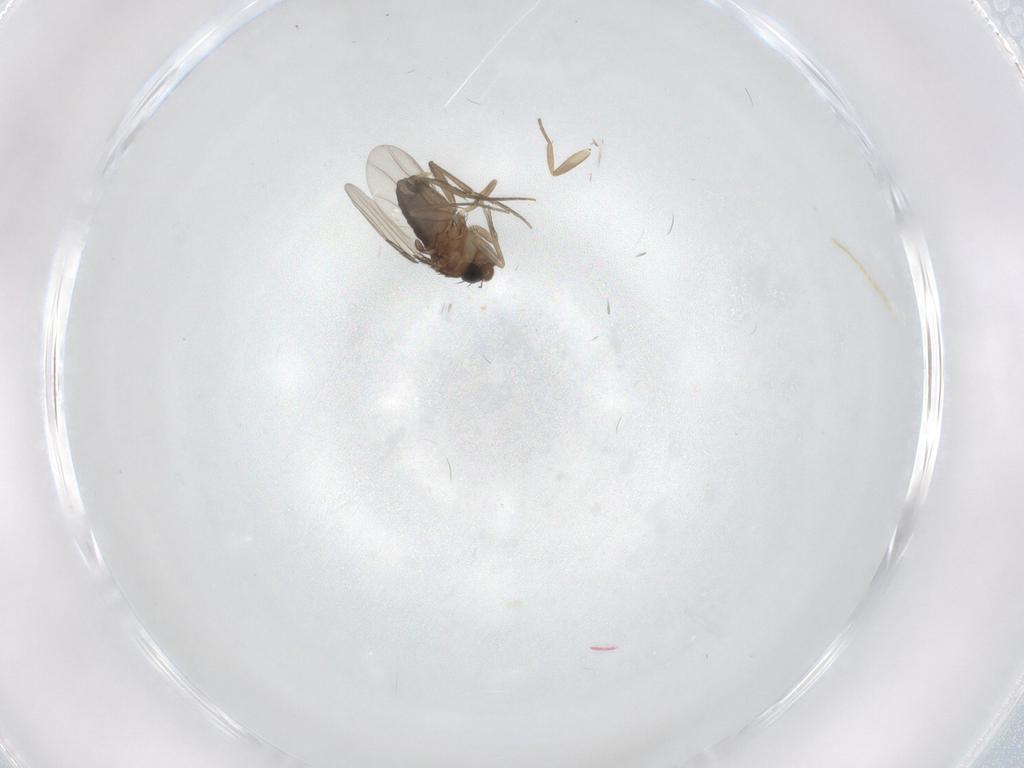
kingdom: Animalia
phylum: Arthropoda
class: Insecta
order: Diptera
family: Phoridae
